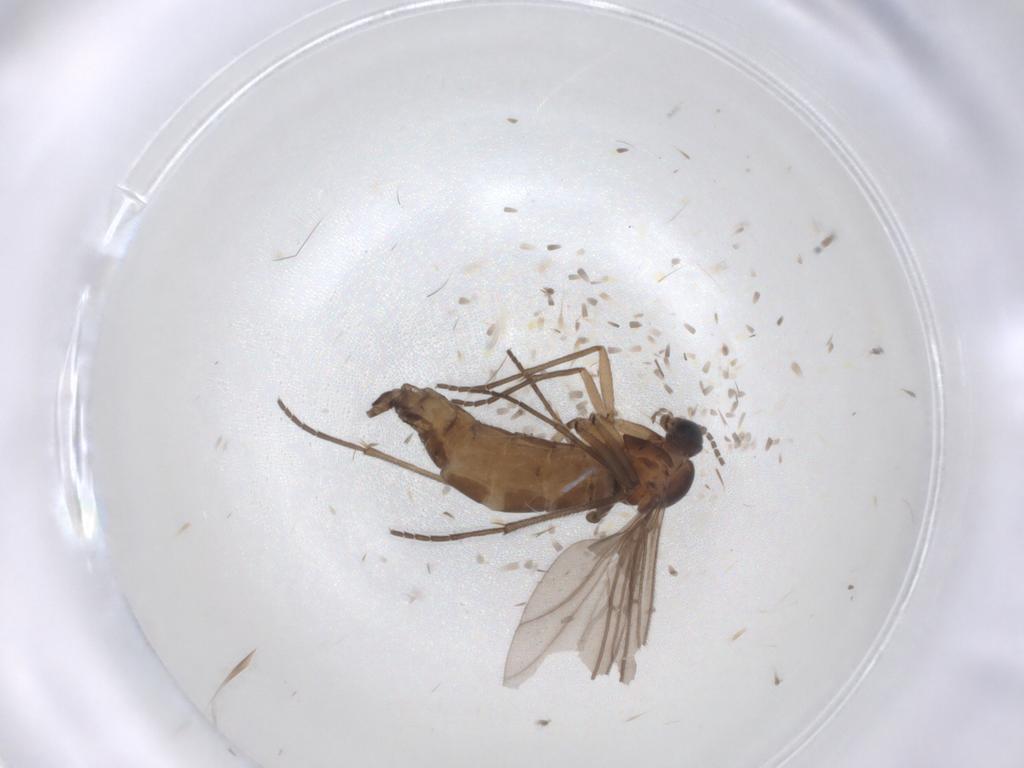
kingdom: Animalia
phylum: Arthropoda
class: Insecta
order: Diptera
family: Sciaridae
